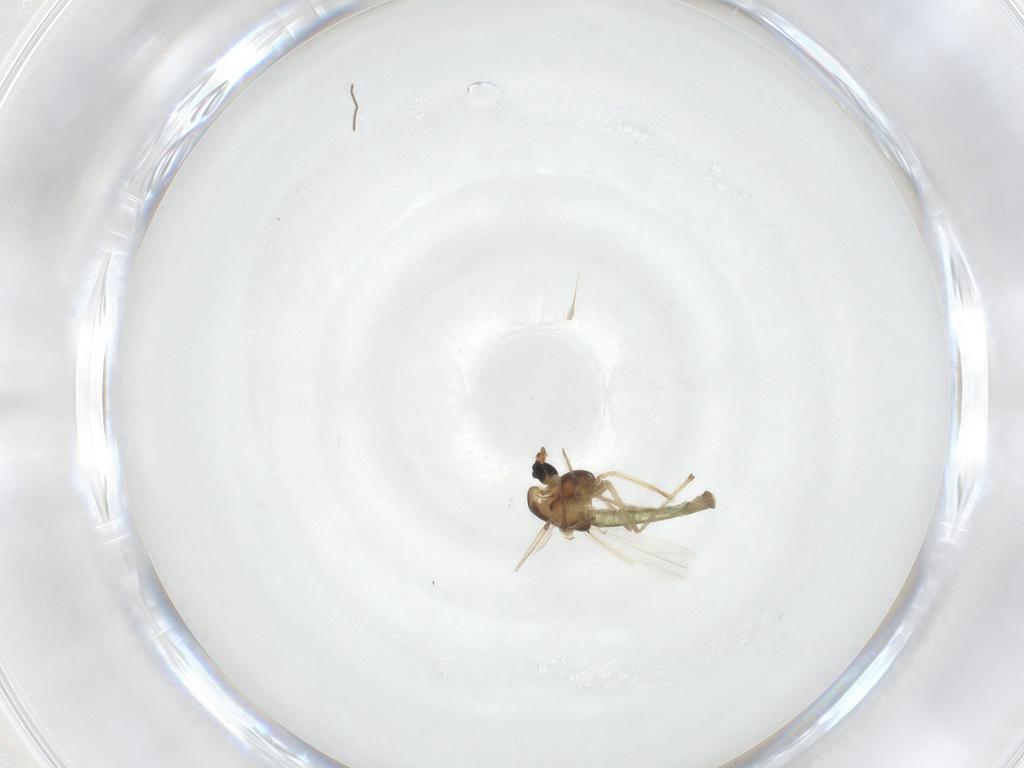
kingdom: Animalia
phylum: Arthropoda
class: Insecta
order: Diptera
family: Chironomidae
